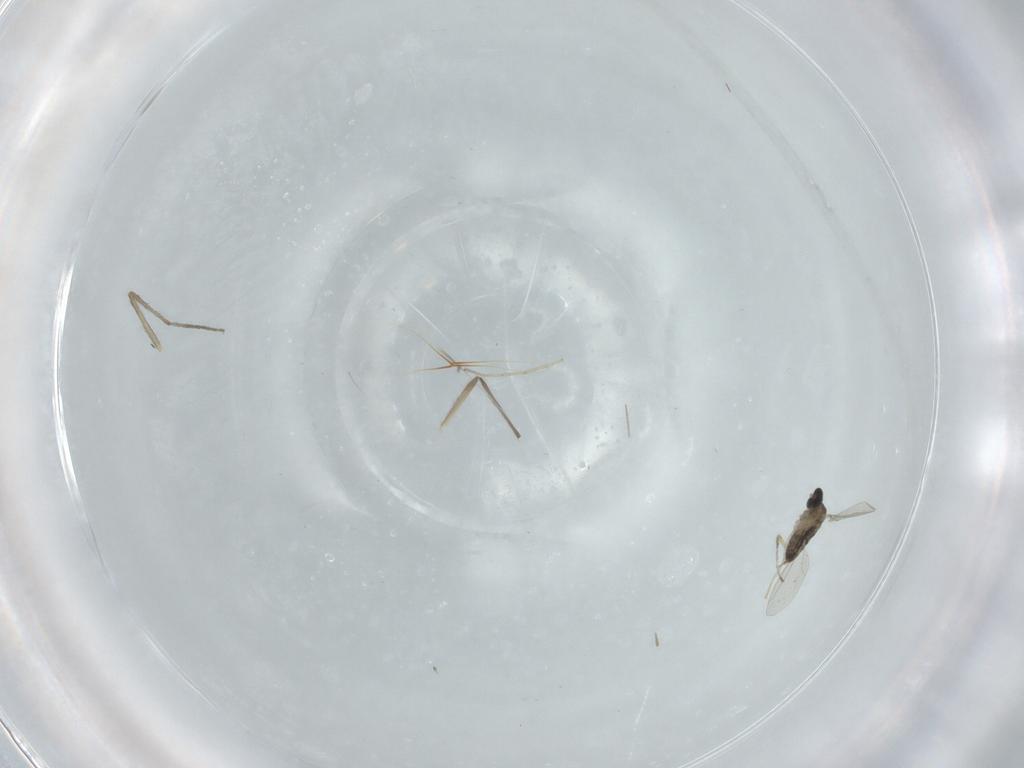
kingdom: Animalia
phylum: Arthropoda
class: Insecta
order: Diptera
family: Cecidomyiidae
